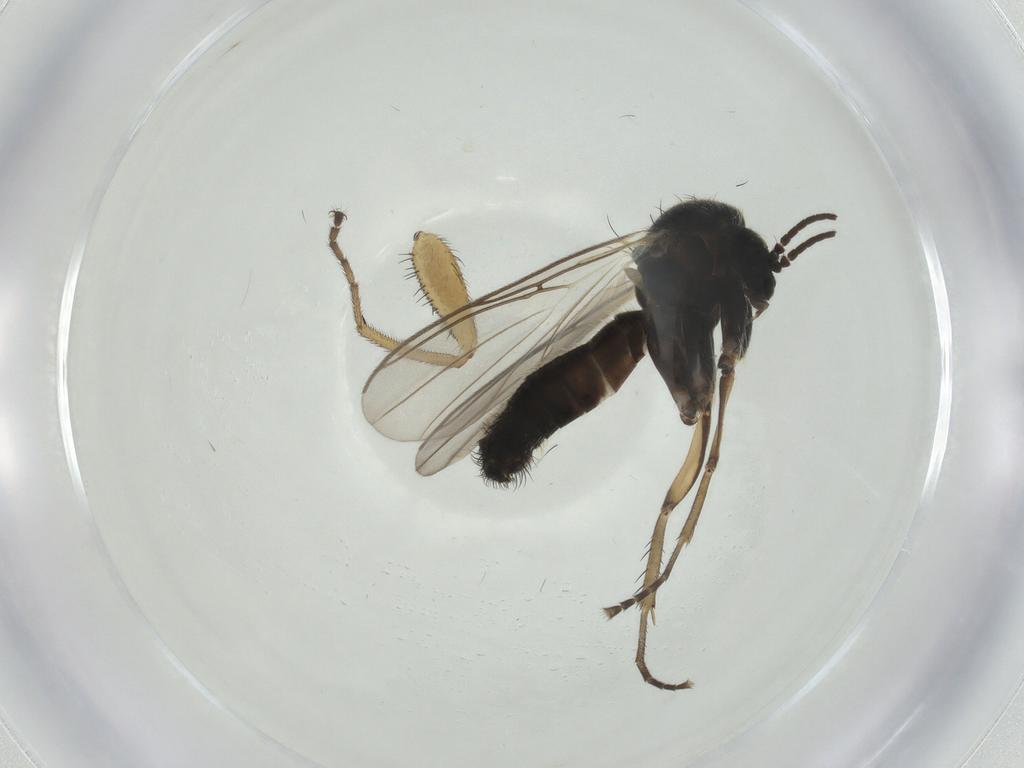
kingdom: Animalia
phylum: Arthropoda
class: Insecta
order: Diptera
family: Mycetophilidae
